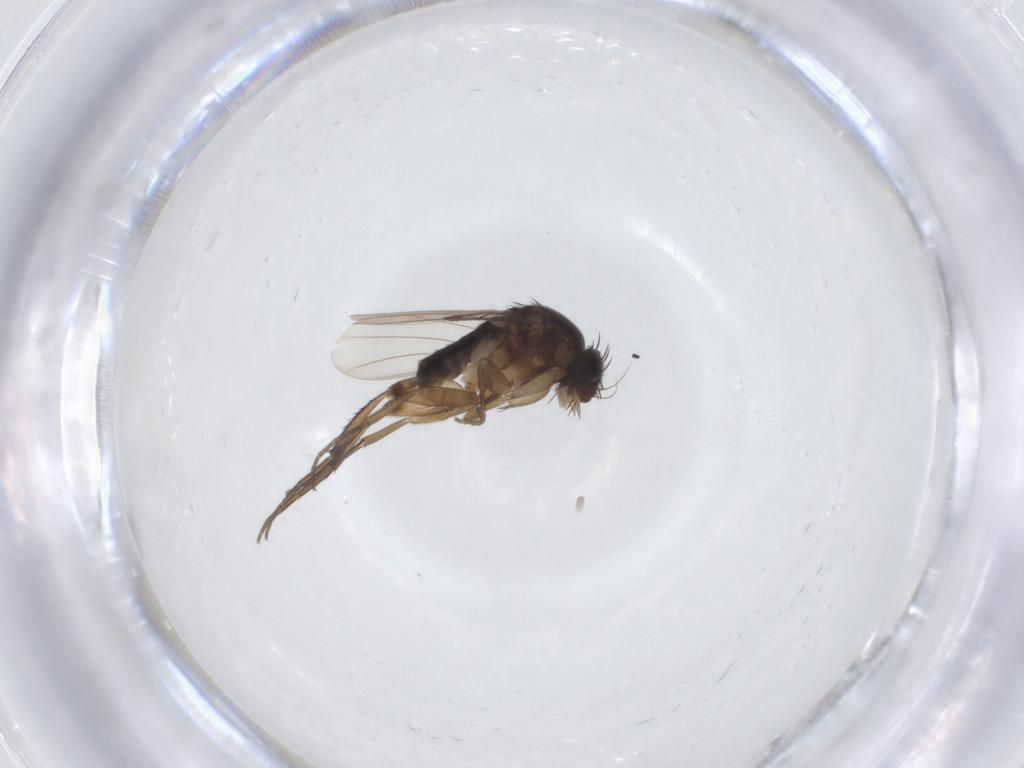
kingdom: Animalia
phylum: Arthropoda
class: Insecta
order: Diptera
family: Phoridae
